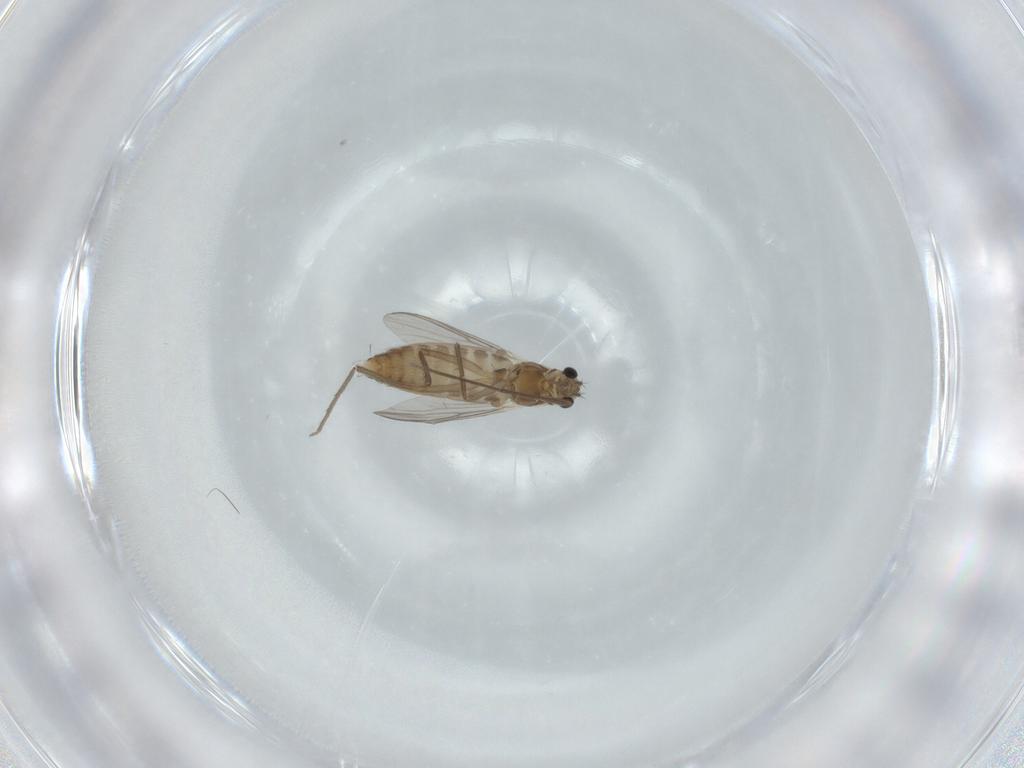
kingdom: Animalia
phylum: Arthropoda
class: Insecta
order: Diptera
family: Chironomidae
